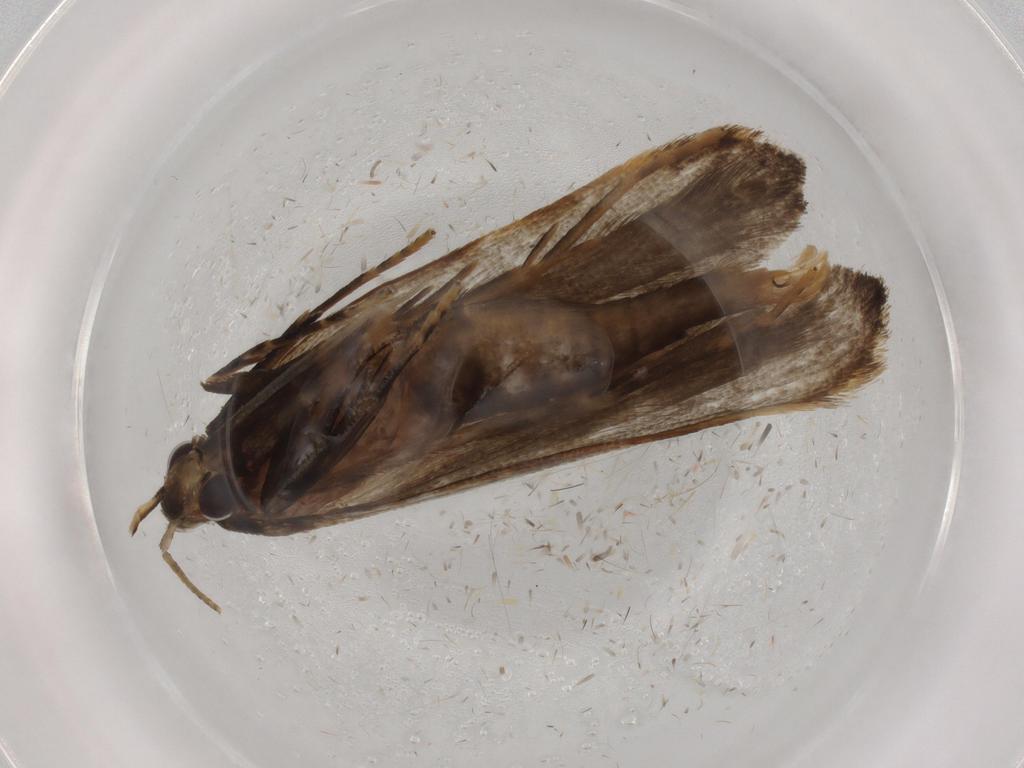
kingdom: Animalia
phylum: Arthropoda
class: Insecta
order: Lepidoptera
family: Gelechiidae
